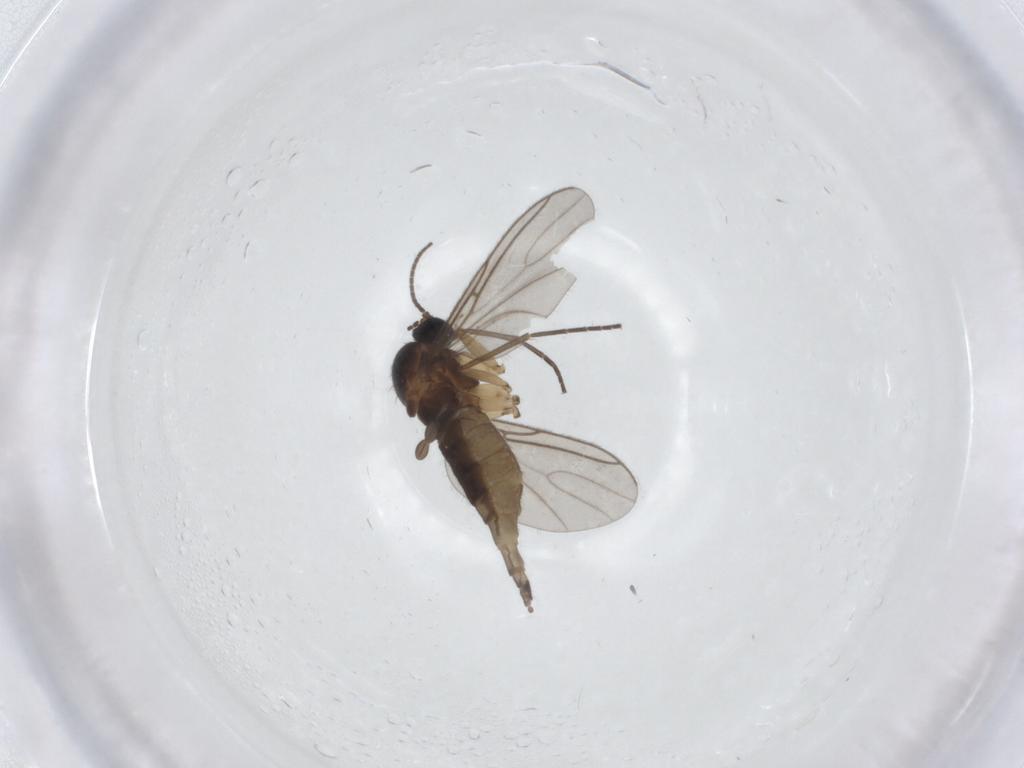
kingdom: Animalia
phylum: Arthropoda
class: Insecta
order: Diptera
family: Sciaridae
